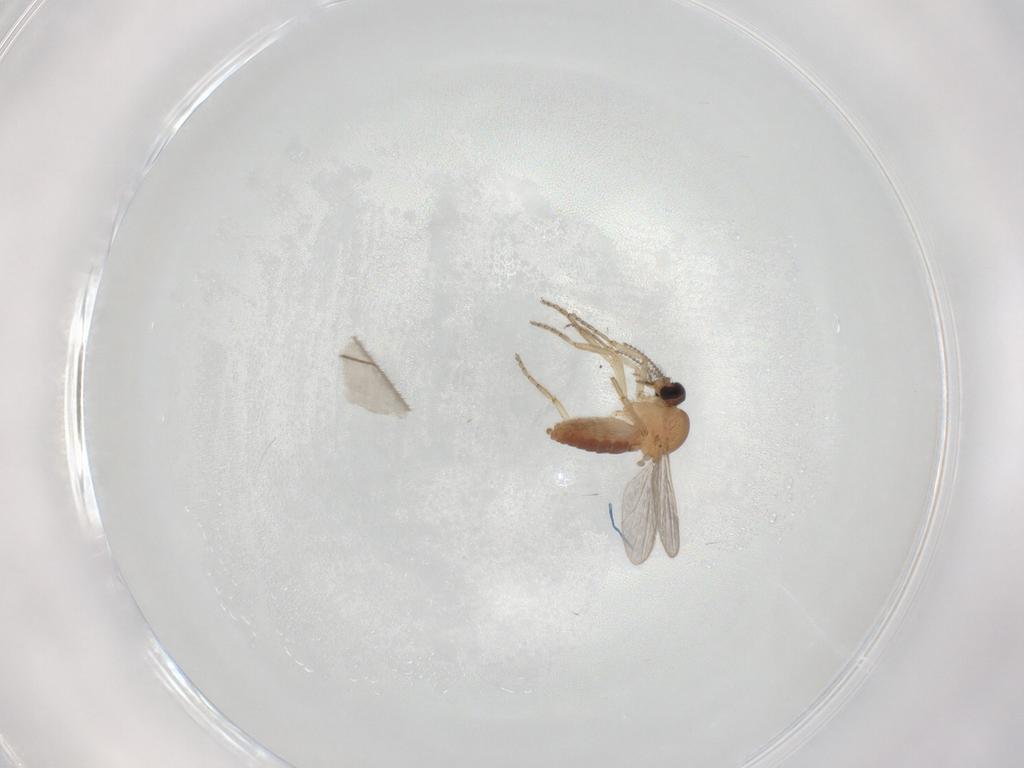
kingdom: Animalia
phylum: Arthropoda
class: Insecta
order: Diptera
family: Ceratopogonidae
